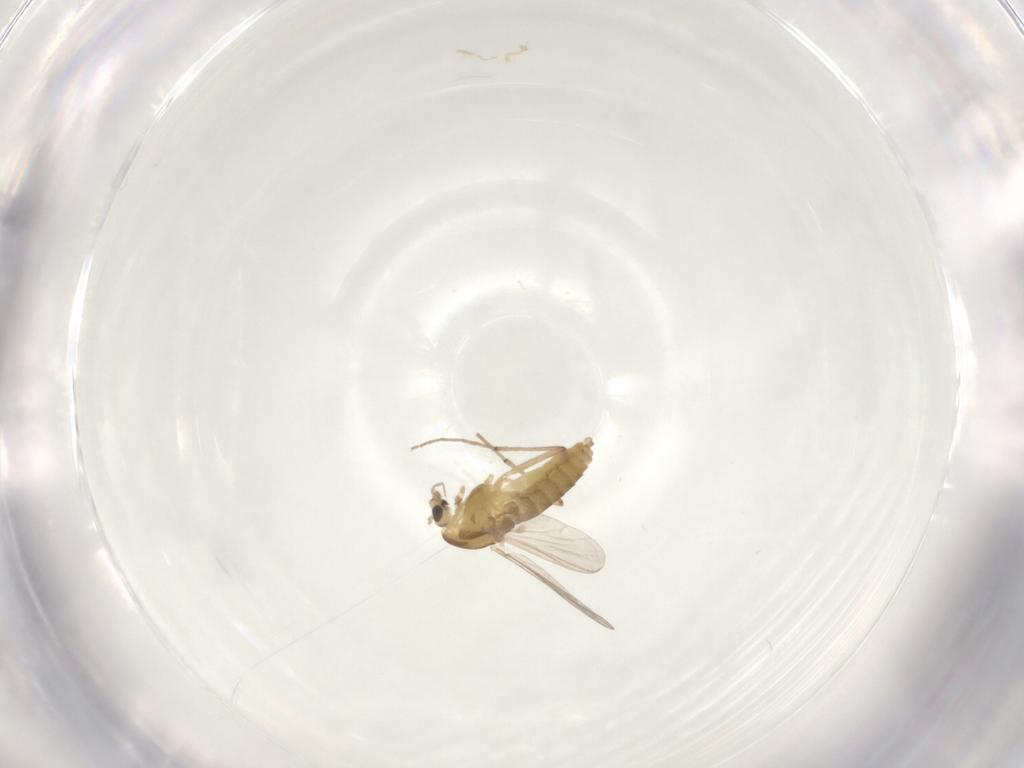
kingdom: Animalia
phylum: Arthropoda
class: Insecta
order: Diptera
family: Chironomidae
